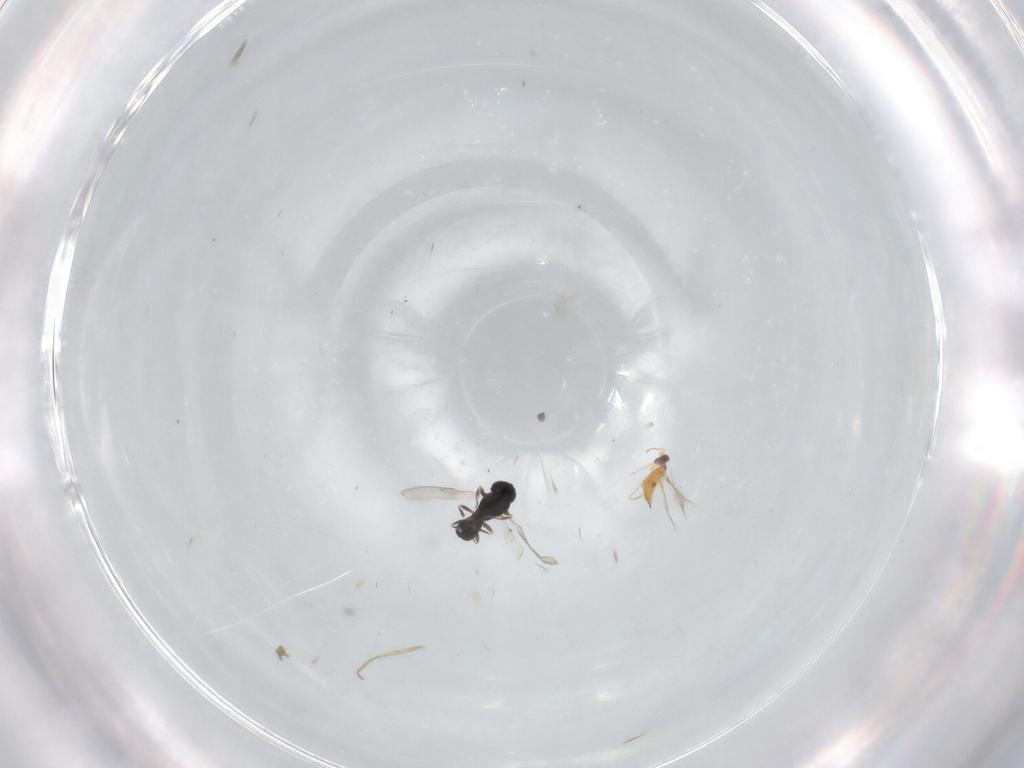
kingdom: Animalia
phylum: Arthropoda
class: Insecta
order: Hymenoptera
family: Scelionidae
